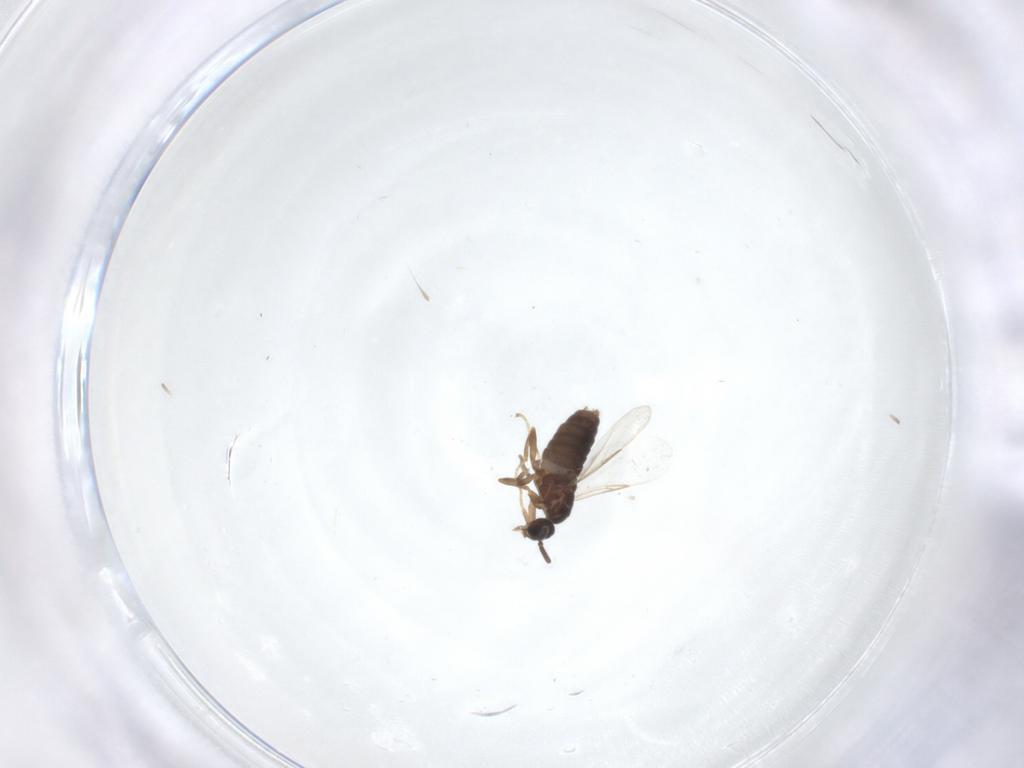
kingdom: Animalia
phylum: Arthropoda
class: Insecta
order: Diptera
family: Scatopsidae
